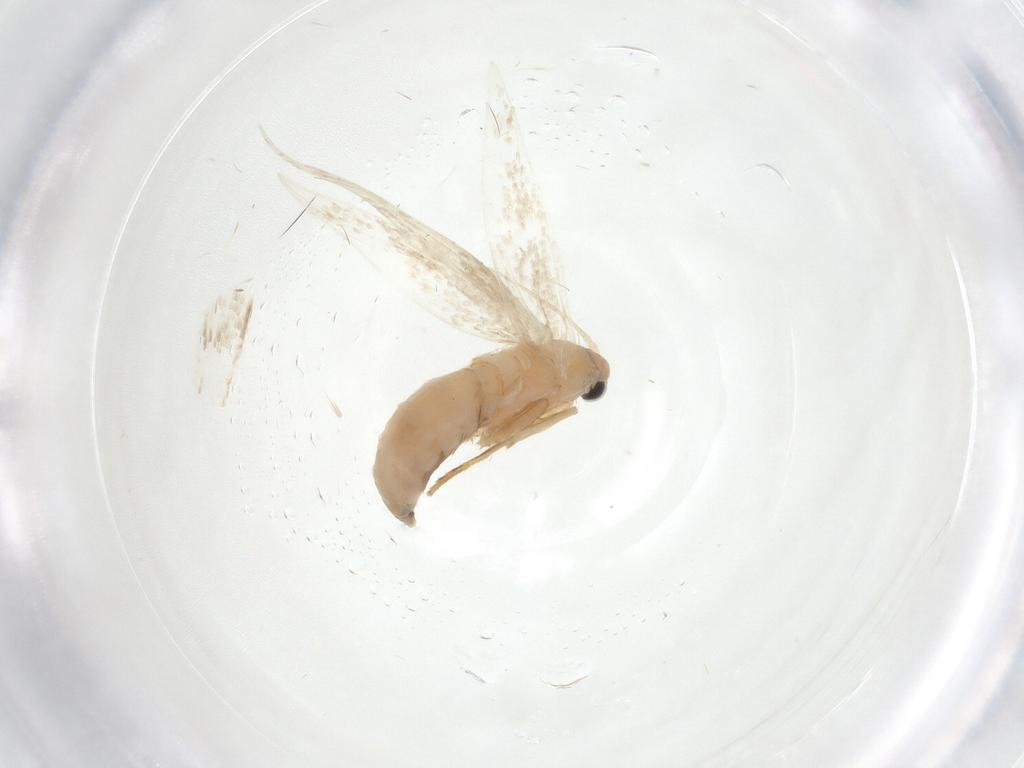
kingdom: Animalia
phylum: Arthropoda
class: Insecta
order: Lepidoptera
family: Tineidae
